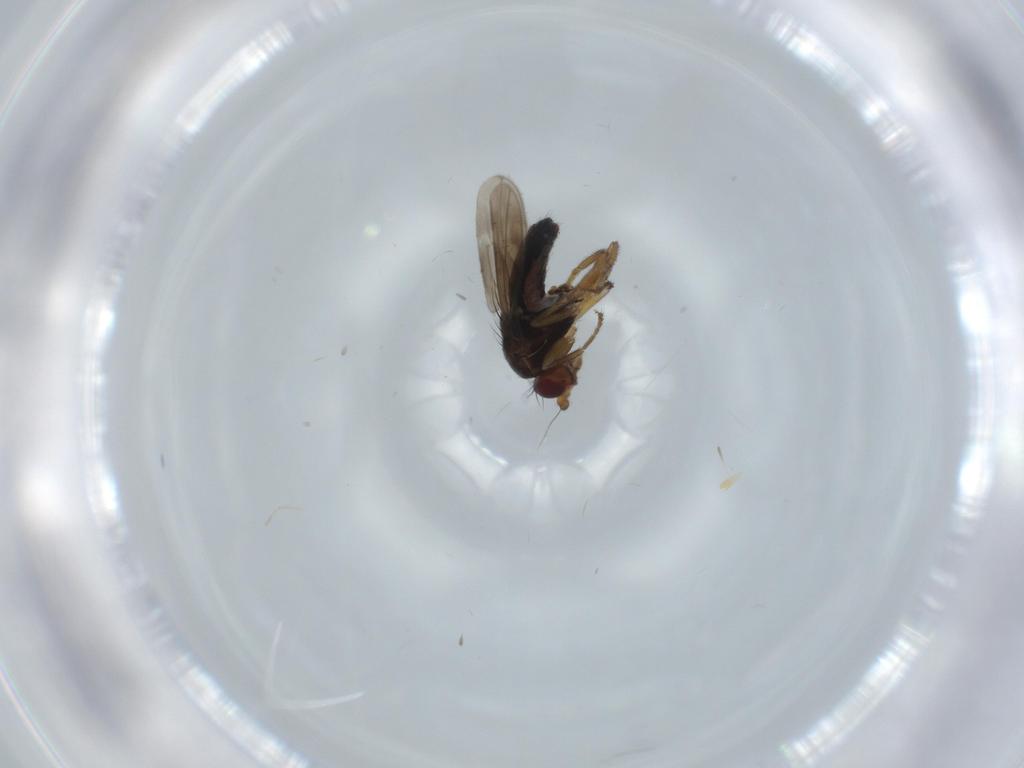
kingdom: Animalia
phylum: Arthropoda
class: Insecta
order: Diptera
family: Sphaeroceridae
